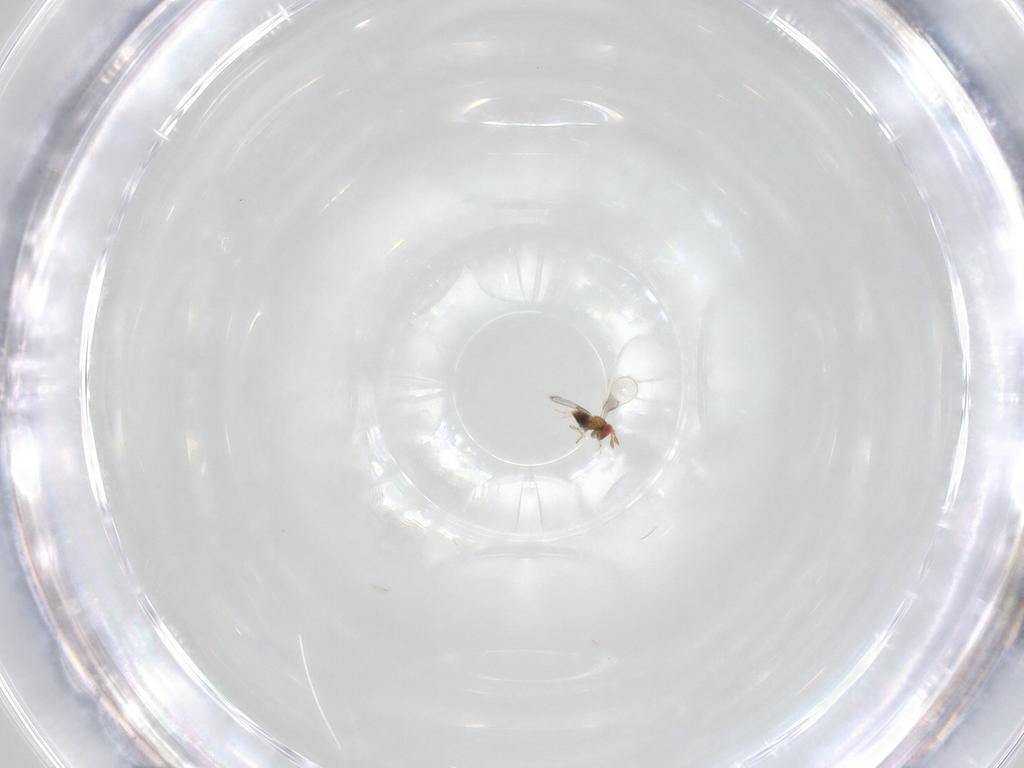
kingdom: Animalia
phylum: Arthropoda
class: Insecta
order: Hymenoptera
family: Trichogrammatidae
